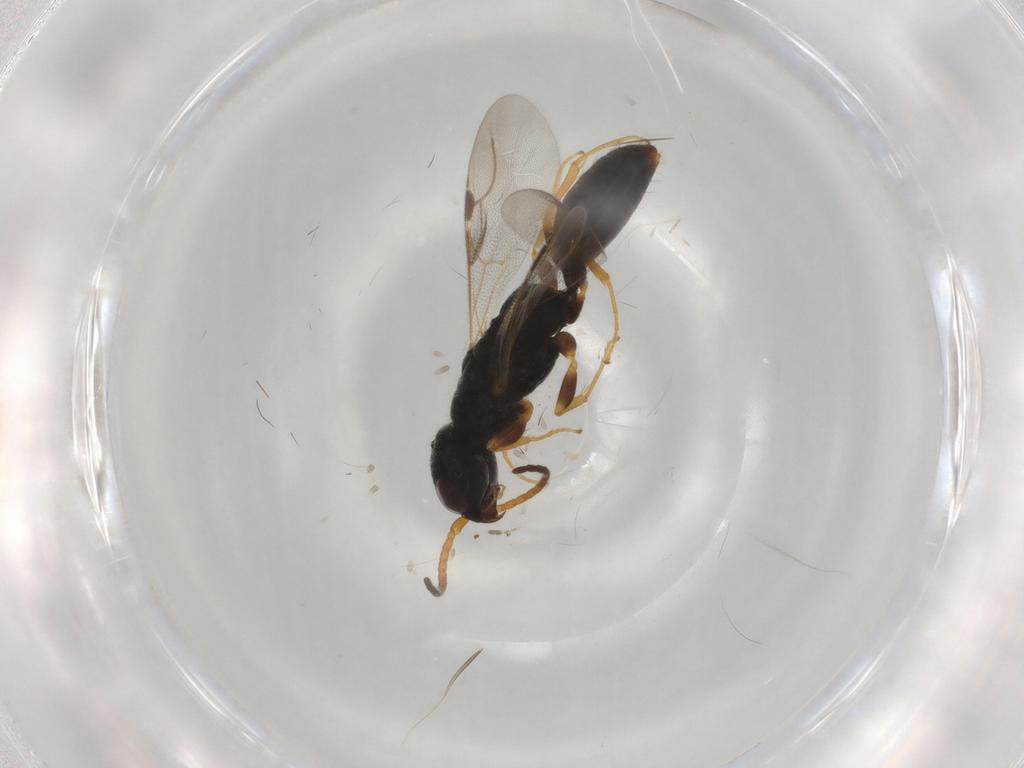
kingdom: Animalia
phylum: Arthropoda
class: Insecta
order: Hymenoptera
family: Bethylidae
